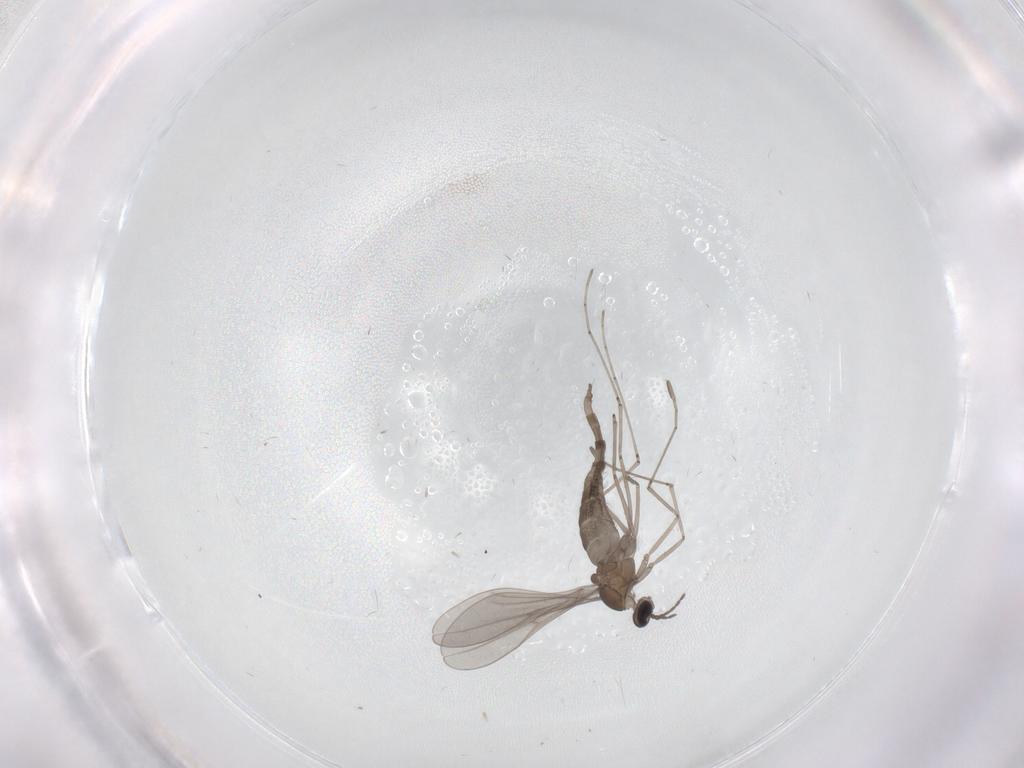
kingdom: Animalia
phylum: Arthropoda
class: Insecta
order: Diptera
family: Cecidomyiidae
